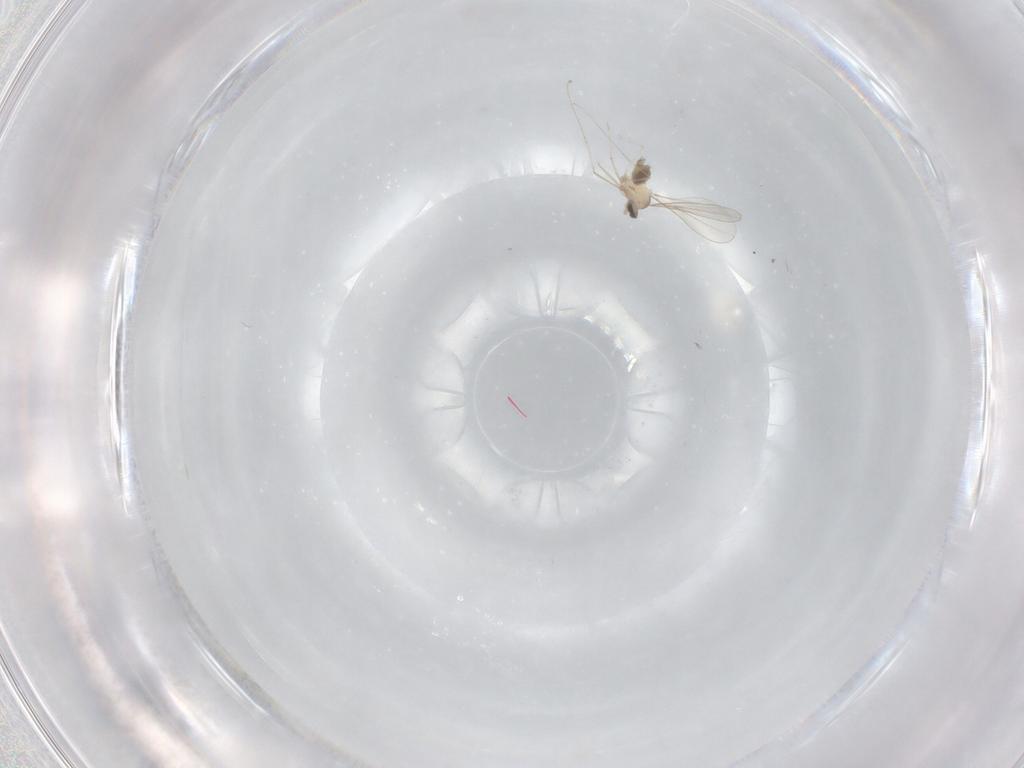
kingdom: Animalia
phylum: Arthropoda
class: Insecta
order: Diptera
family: Cecidomyiidae
